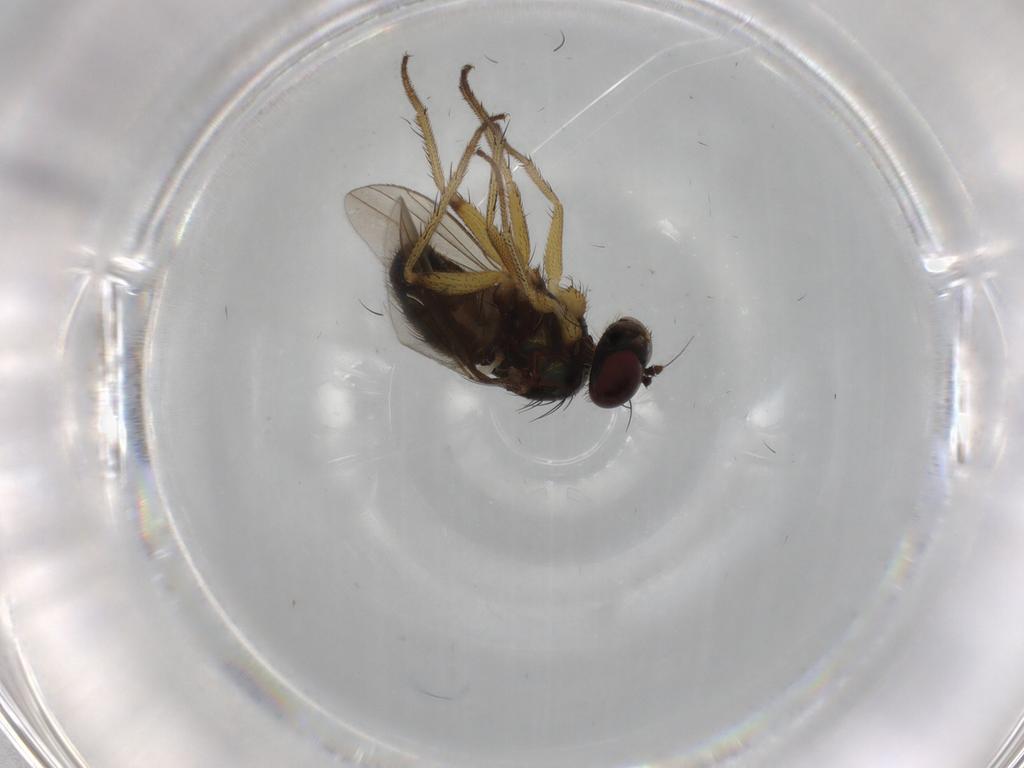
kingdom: Animalia
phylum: Arthropoda
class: Insecta
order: Diptera
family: Dolichopodidae
